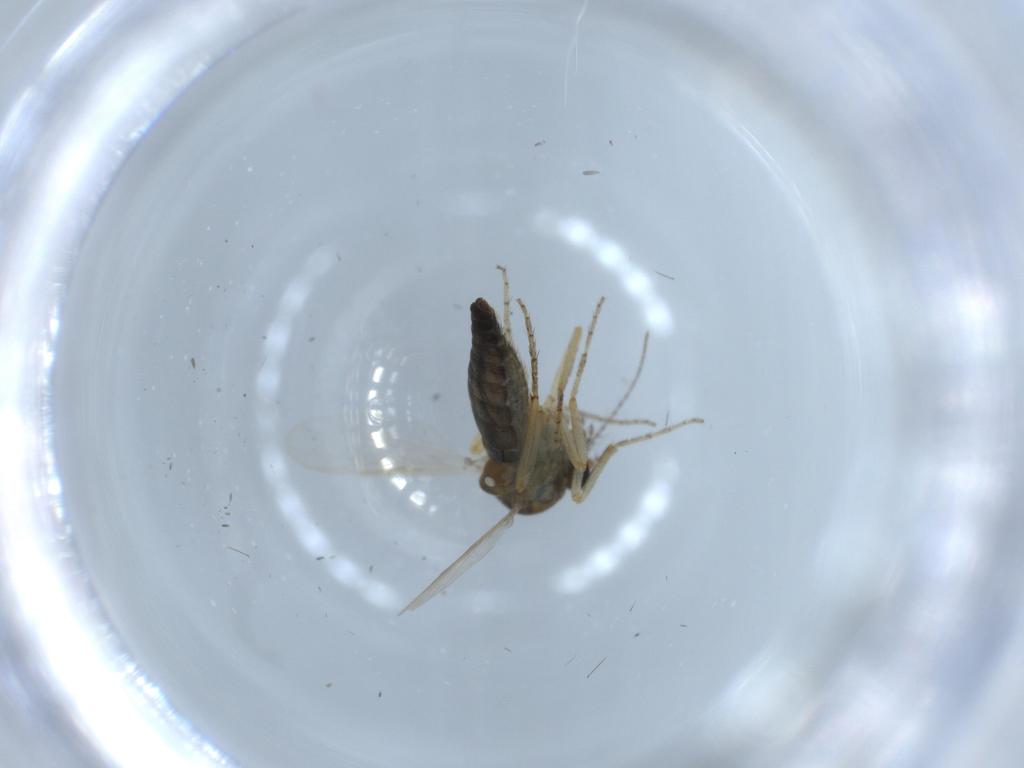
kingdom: Animalia
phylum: Arthropoda
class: Insecta
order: Diptera
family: Ceratopogonidae
